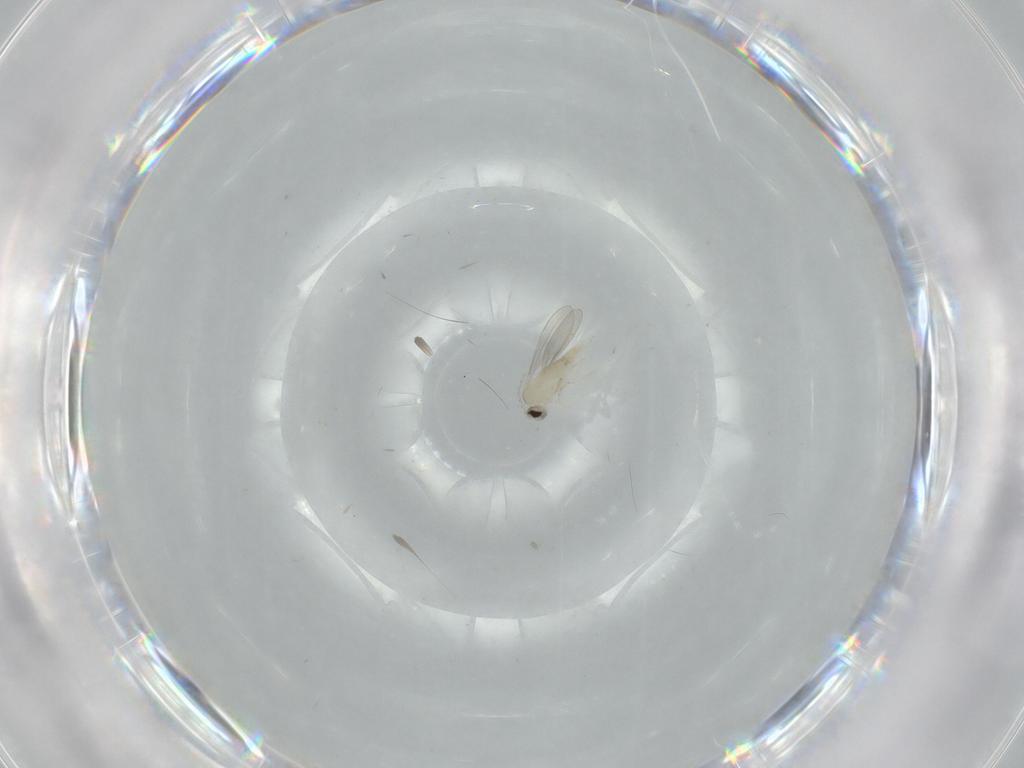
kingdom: Animalia
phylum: Arthropoda
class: Insecta
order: Diptera
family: Cecidomyiidae
